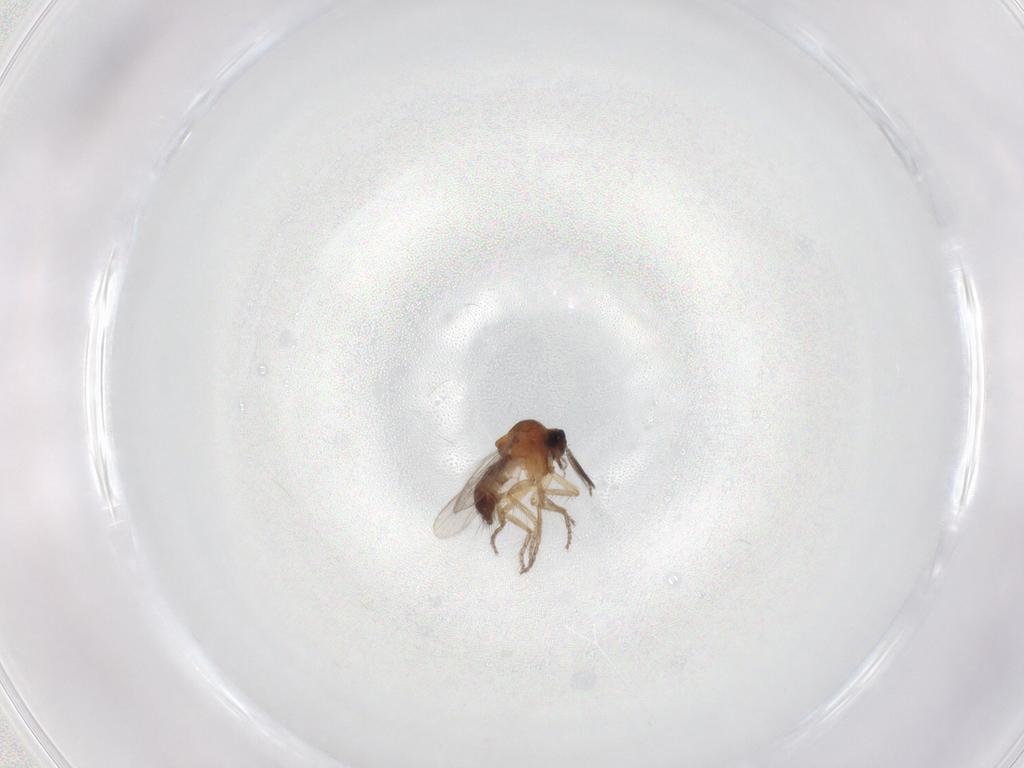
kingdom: Animalia
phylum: Arthropoda
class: Insecta
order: Diptera
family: Ceratopogonidae
